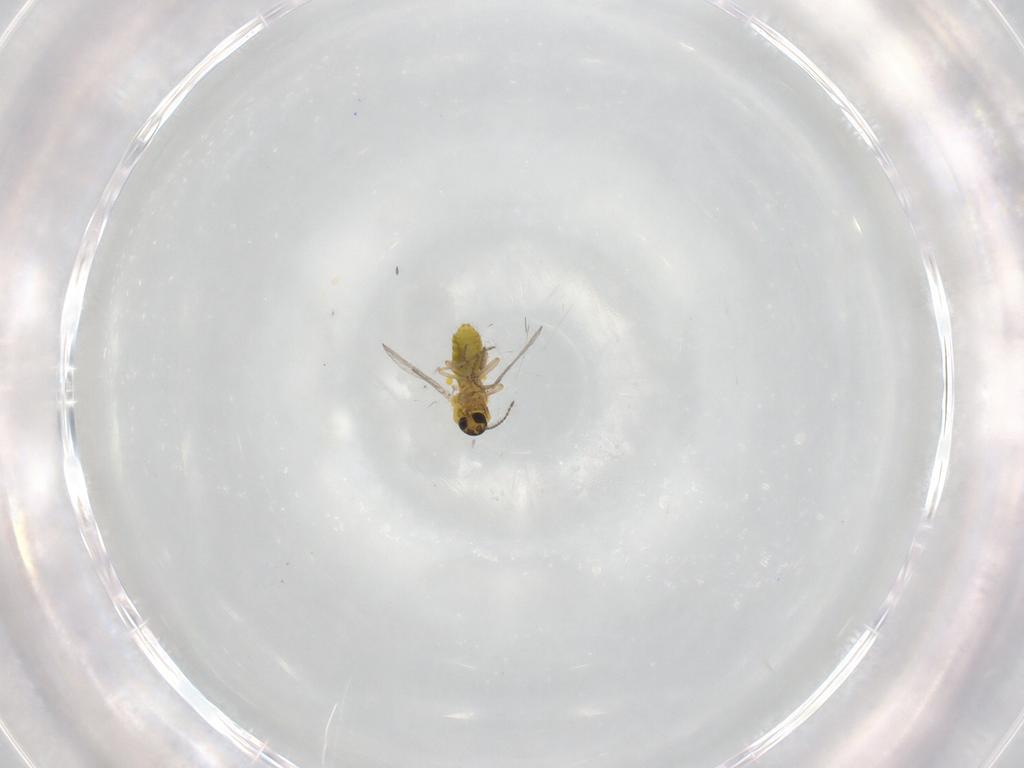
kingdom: Animalia
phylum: Arthropoda
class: Insecta
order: Diptera
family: Ceratopogonidae
